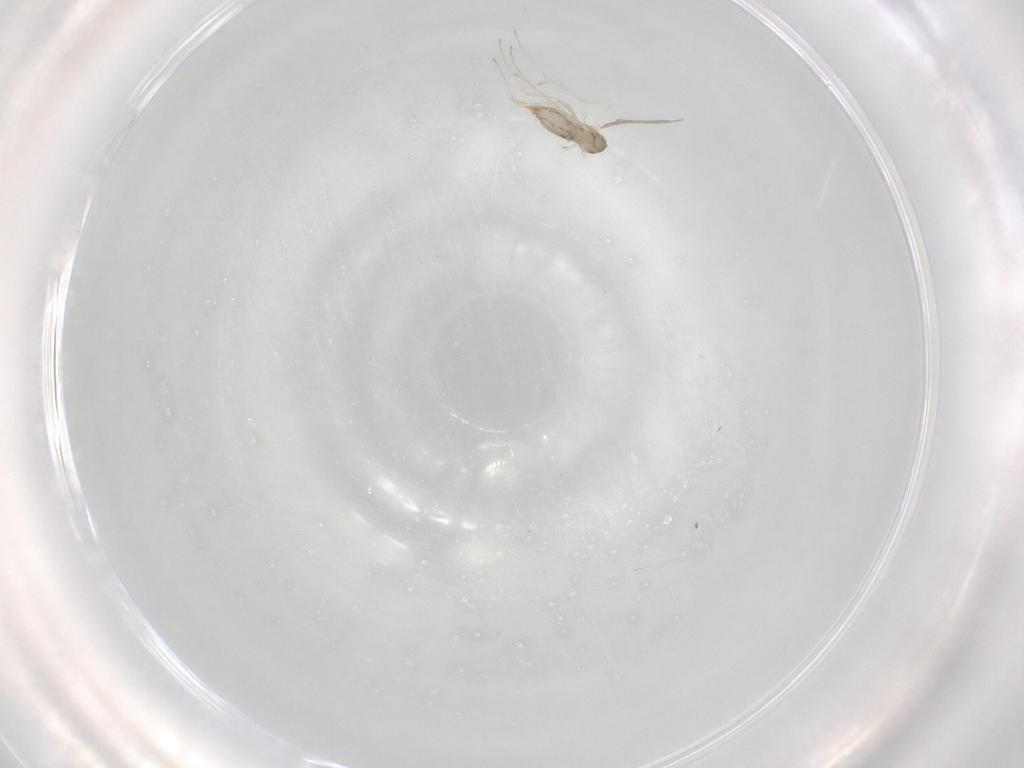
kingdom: Animalia
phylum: Arthropoda
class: Insecta
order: Diptera
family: Cecidomyiidae
